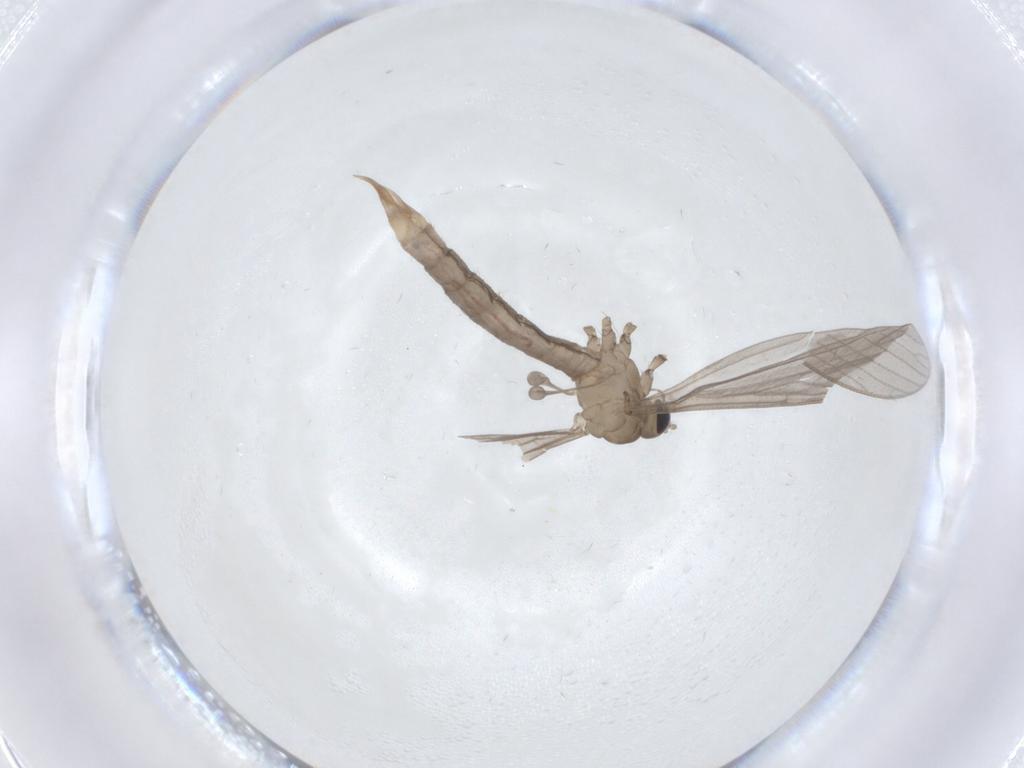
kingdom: Animalia
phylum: Arthropoda
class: Insecta
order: Diptera
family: Limoniidae
